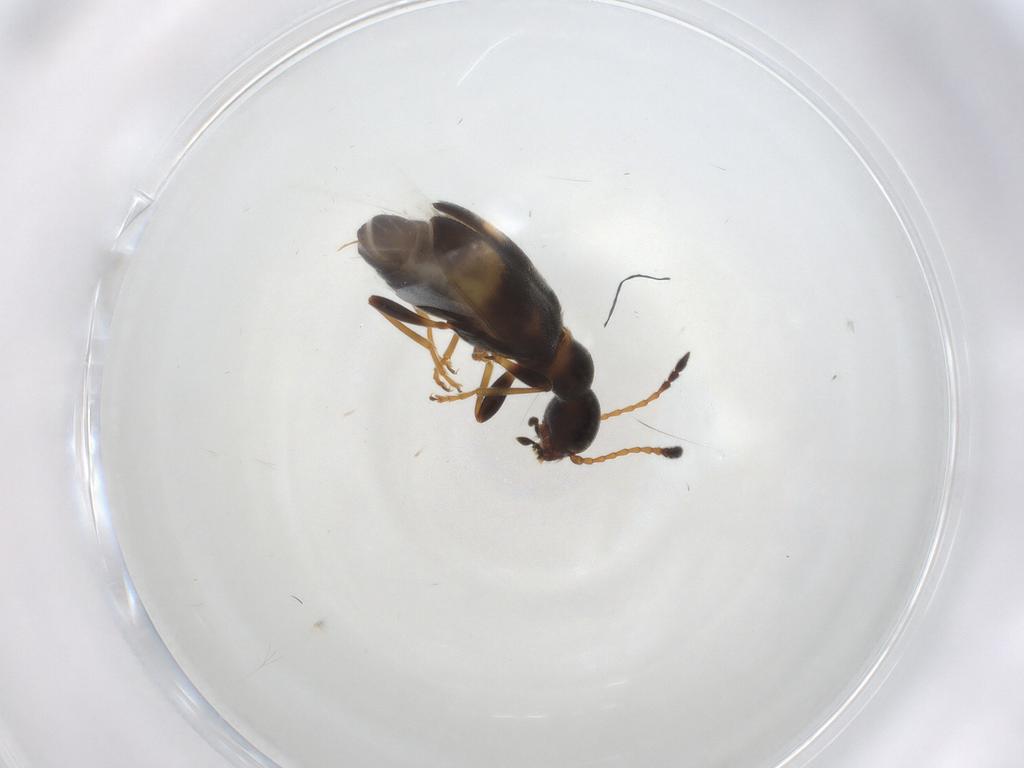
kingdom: Animalia
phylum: Arthropoda
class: Insecta
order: Coleoptera
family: Anthicidae
